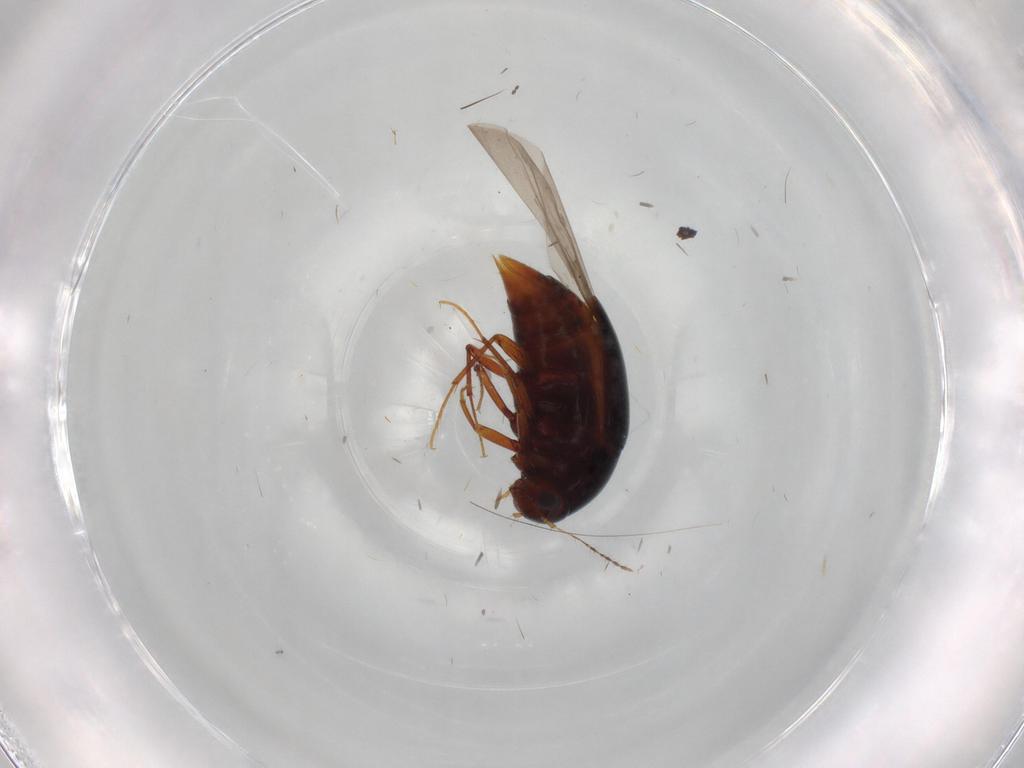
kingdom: Animalia
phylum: Arthropoda
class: Insecta
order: Coleoptera
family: Staphylinidae
